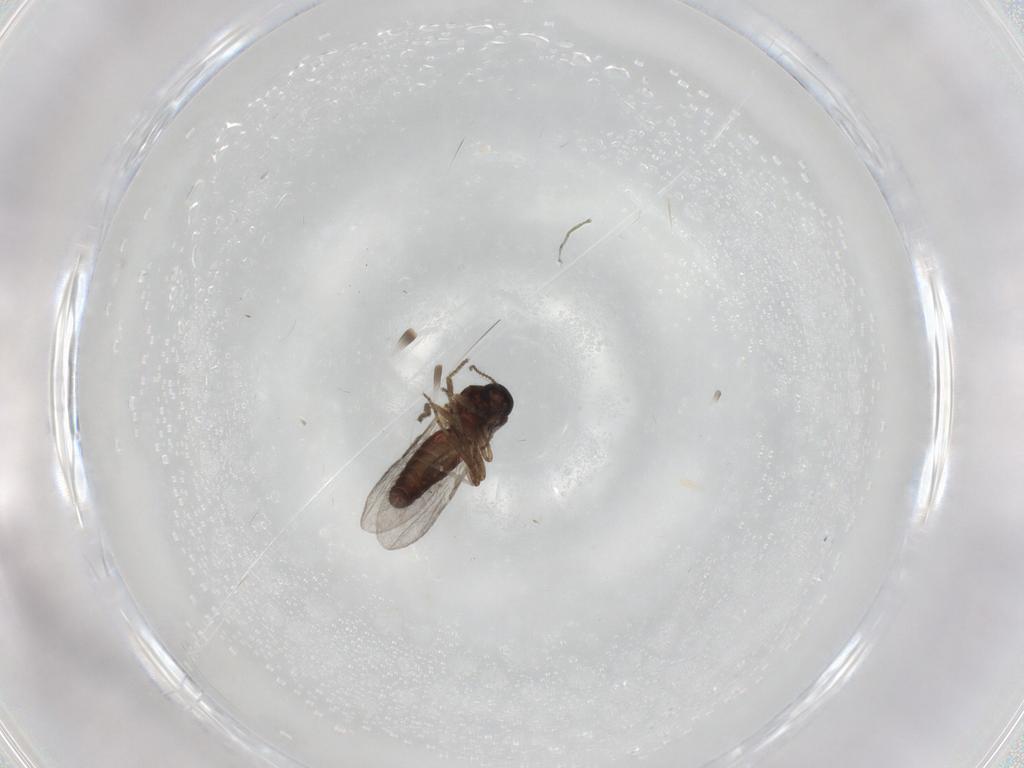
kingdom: Animalia
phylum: Arthropoda
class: Insecta
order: Diptera
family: Ceratopogonidae
